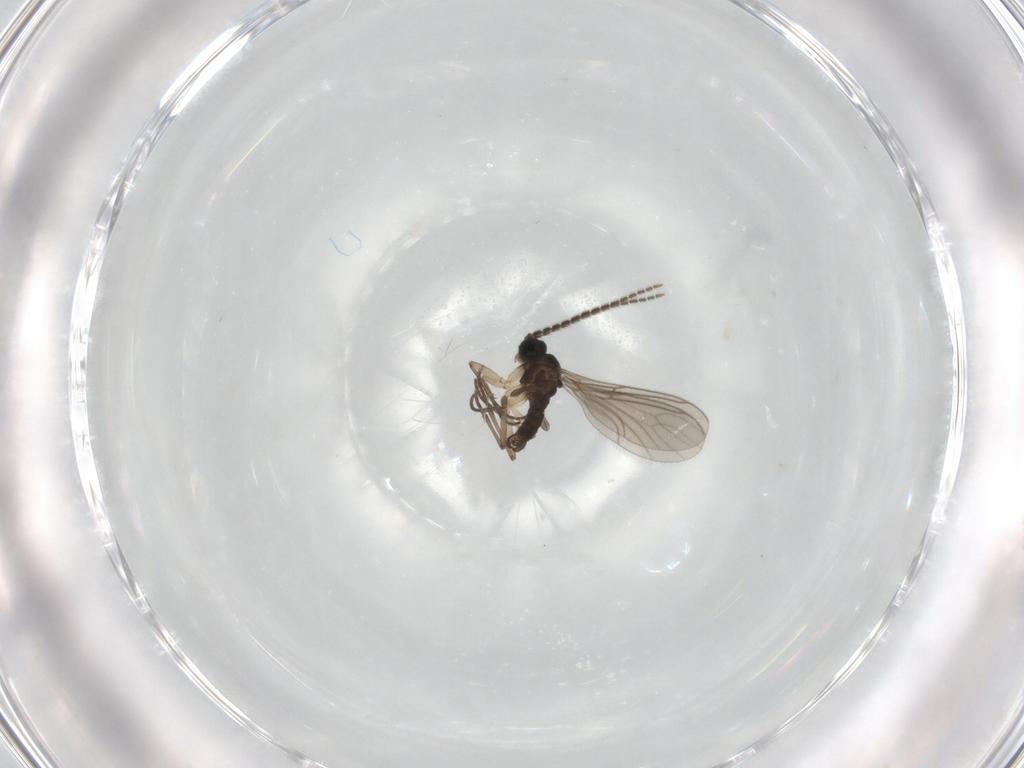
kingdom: Animalia
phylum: Arthropoda
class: Insecta
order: Diptera
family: Sciaridae
